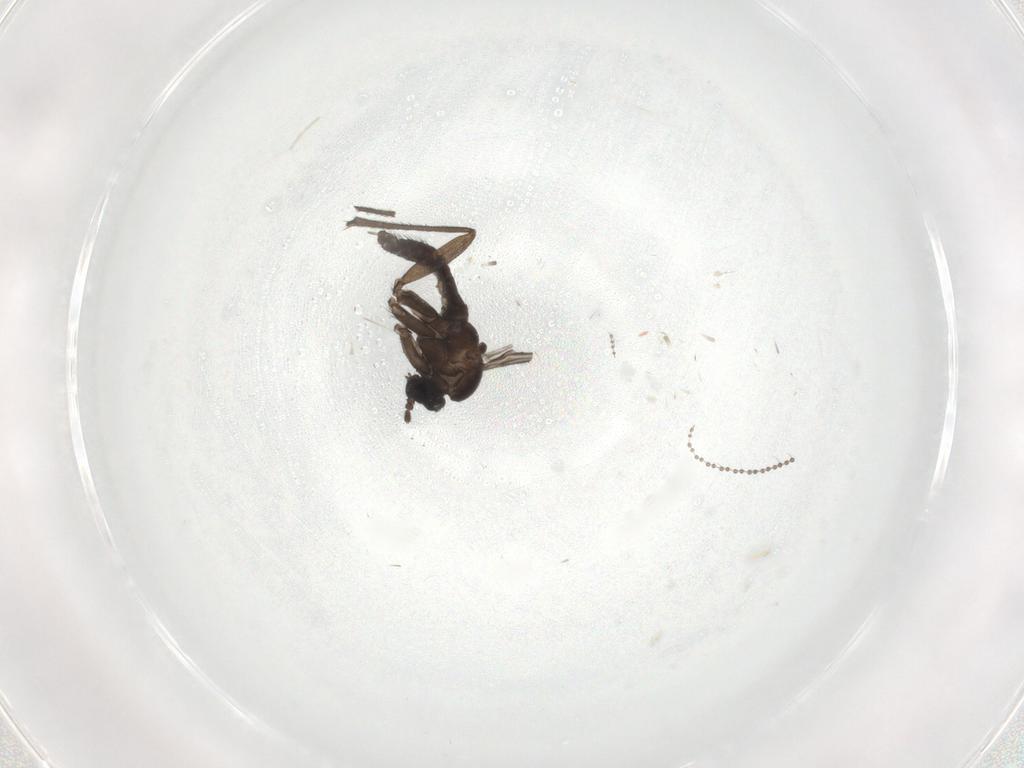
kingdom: Animalia
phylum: Arthropoda
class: Insecta
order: Diptera
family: Sciaridae
